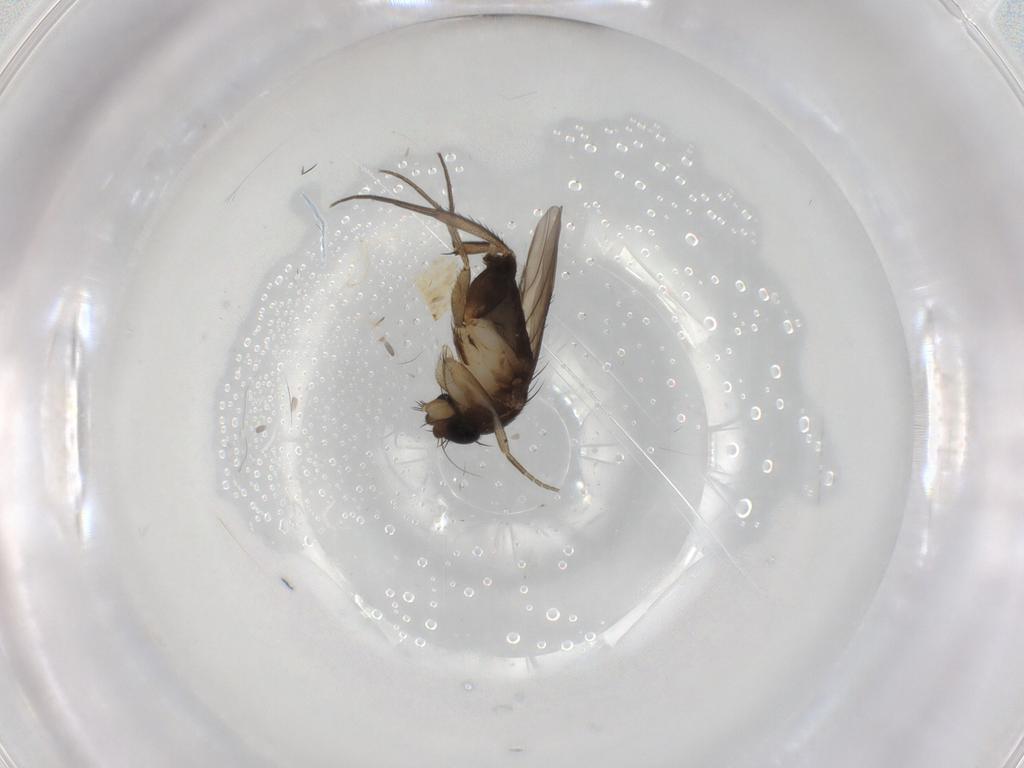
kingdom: Animalia
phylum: Arthropoda
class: Insecta
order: Diptera
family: Phoridae
